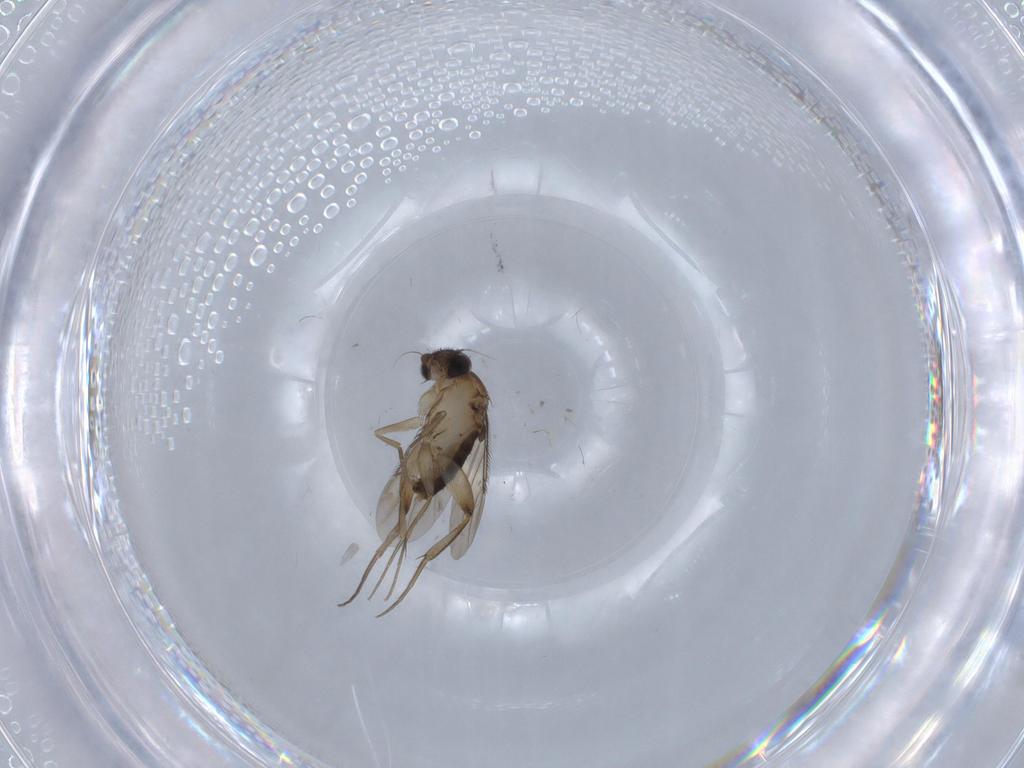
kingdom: Animalia
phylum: Arthropoda
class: Insecta
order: Diptera
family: Phoridae
